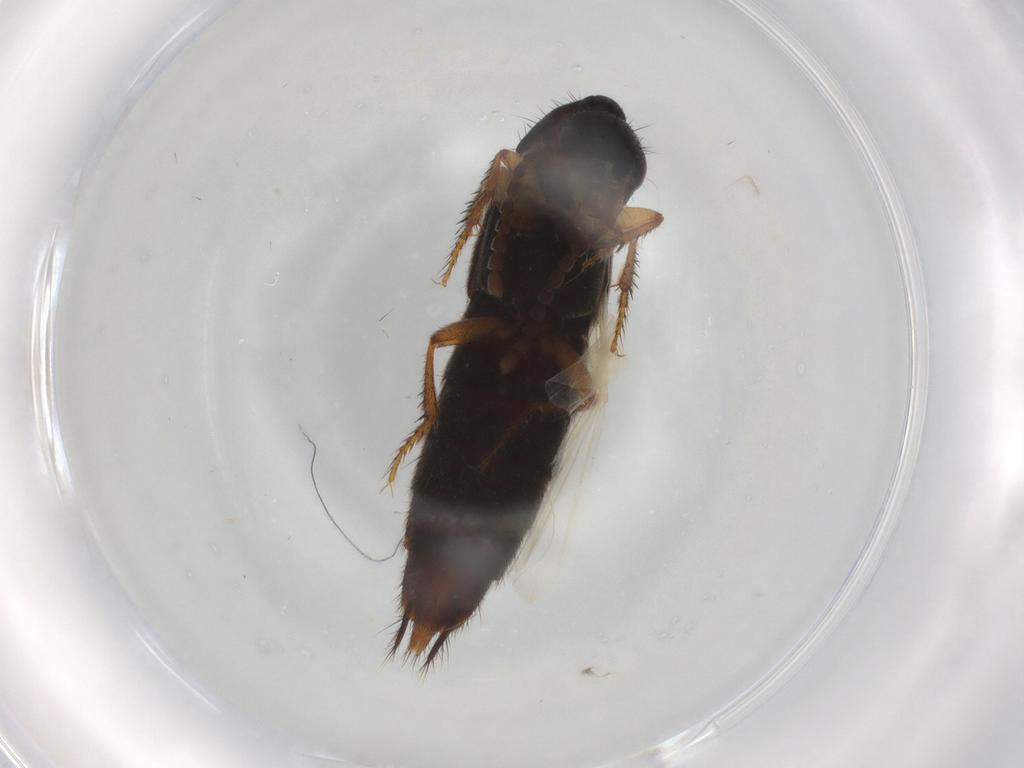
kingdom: Animalia
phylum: Arthropoda
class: Insecta
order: Coleoptera
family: Staphylinidae
